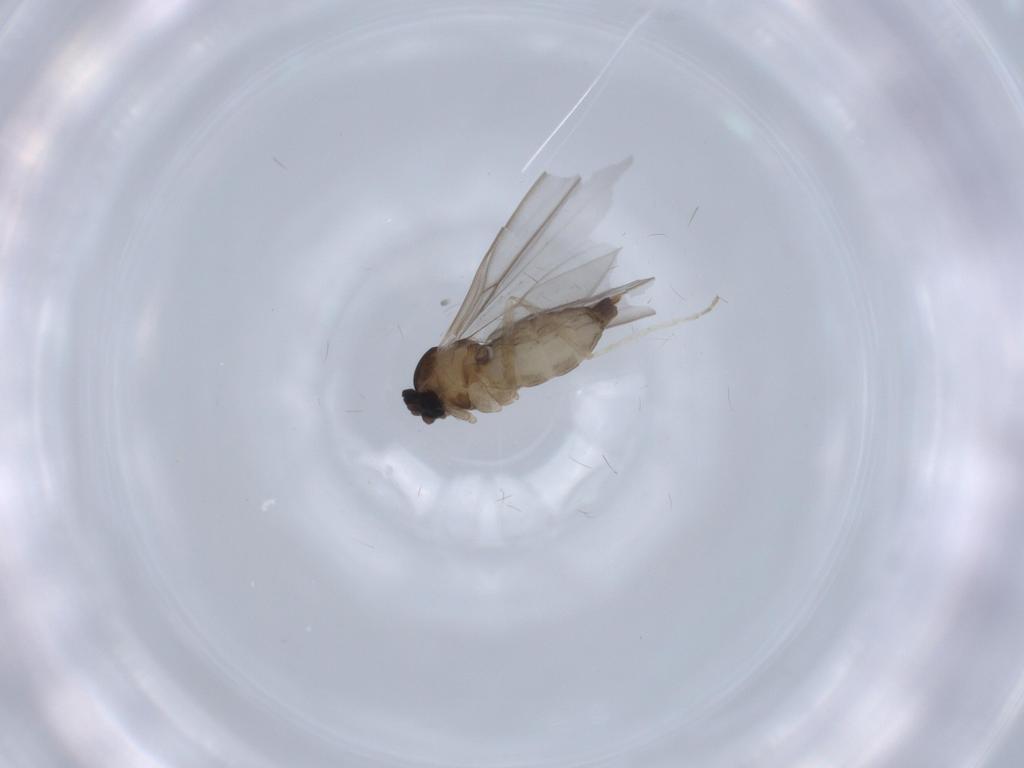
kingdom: Animalia
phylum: Arthropoda
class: Insecta
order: Diptera
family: Cecidomyiidae
